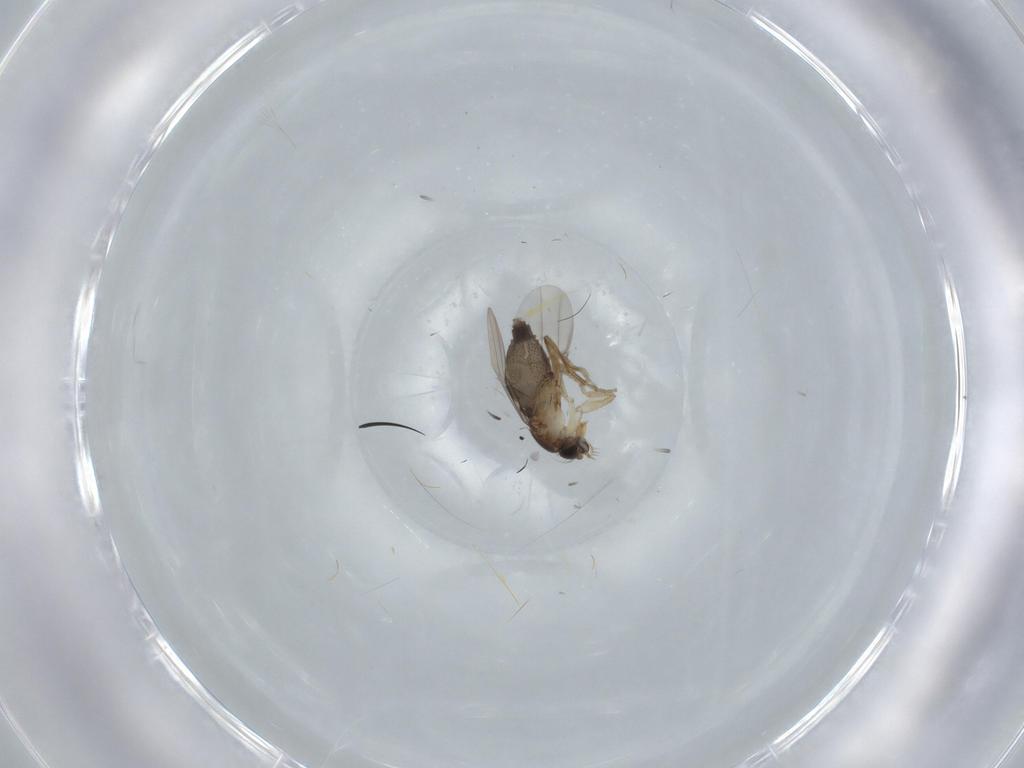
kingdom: Animalia
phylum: Arthropoda
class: Insecta
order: Diptera
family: Phoridae
